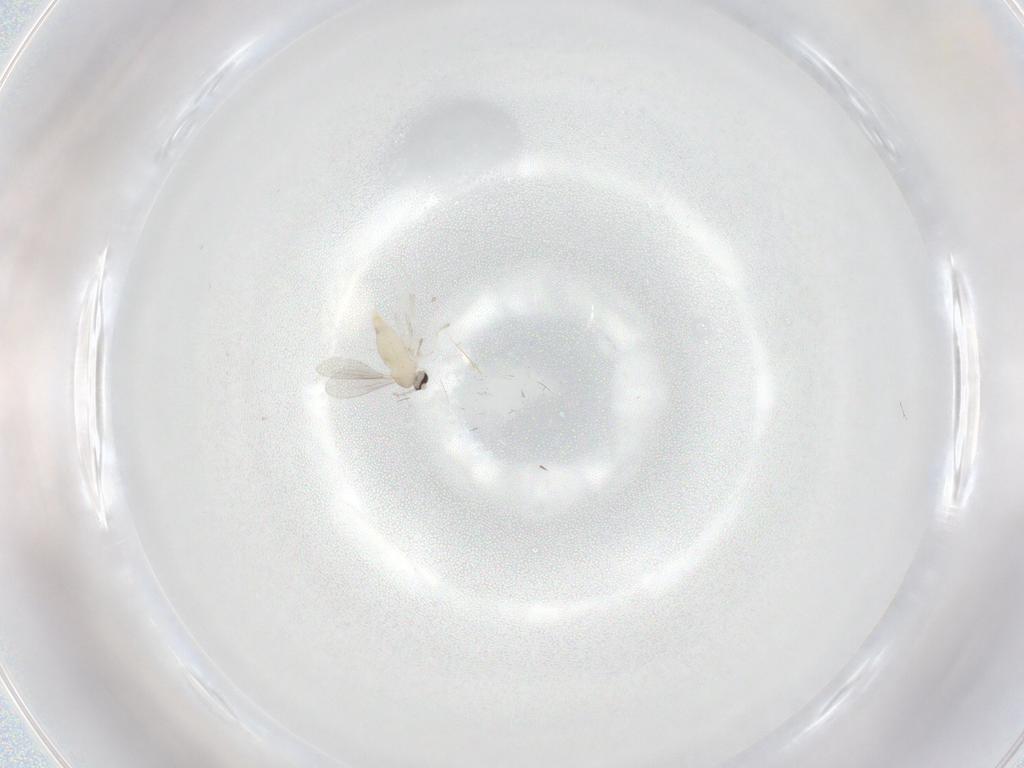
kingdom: Animalia
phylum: Arthropoda
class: Insecta
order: Diptera
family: Cecidomyiidae
